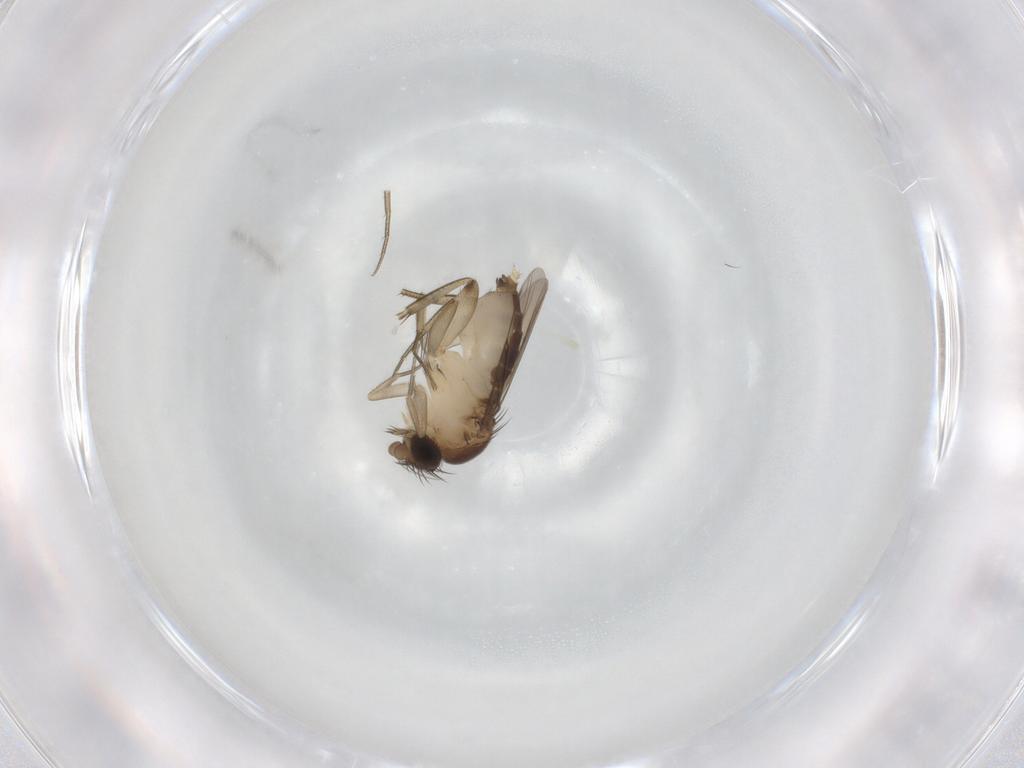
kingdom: Animalia
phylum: Arthropoda
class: Insecta
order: Diptera
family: Phoridae
